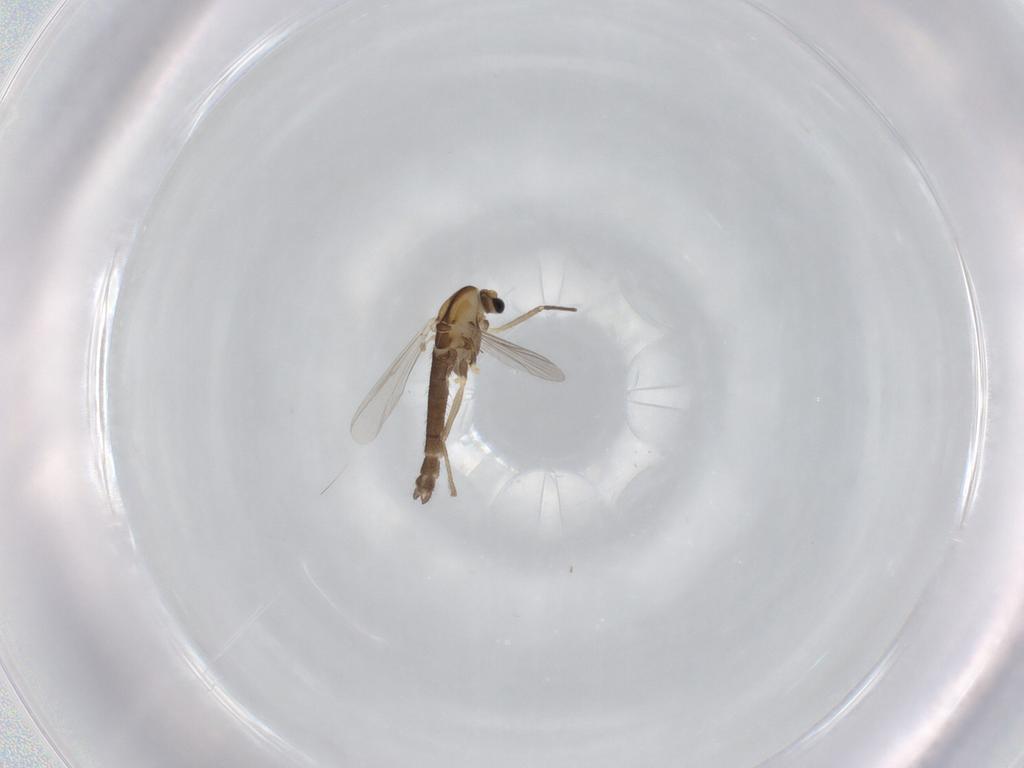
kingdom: Animalia
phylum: Arthropoda
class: Insecta
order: Diptera
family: Chironomidae
